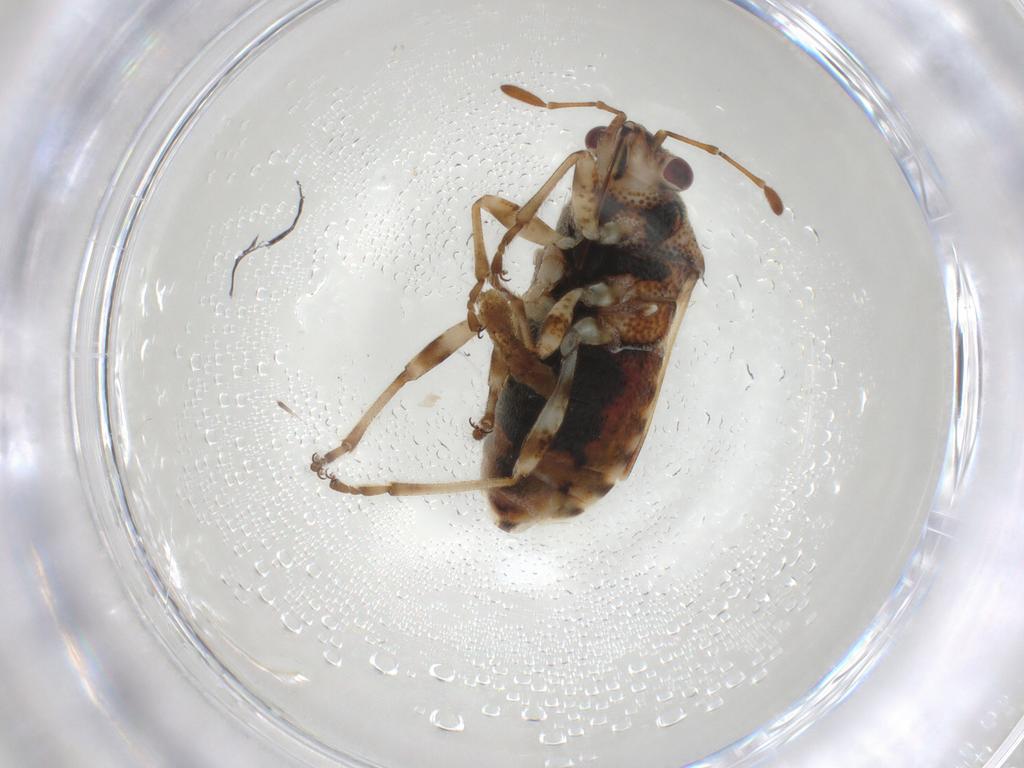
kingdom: Animalia
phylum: Arthropoda
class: Insecta
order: Hemiptera
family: Lygaeidae
